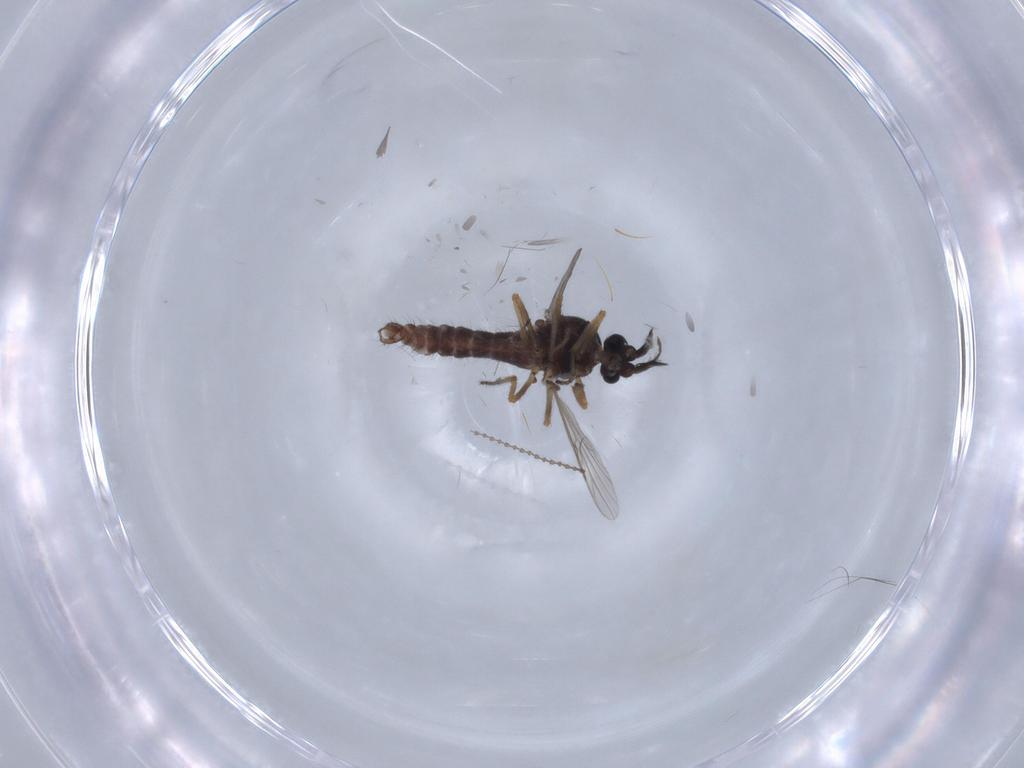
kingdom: Animalia
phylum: Arthropoda
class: Insecta
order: Diptera
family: Ceratopogonidae
